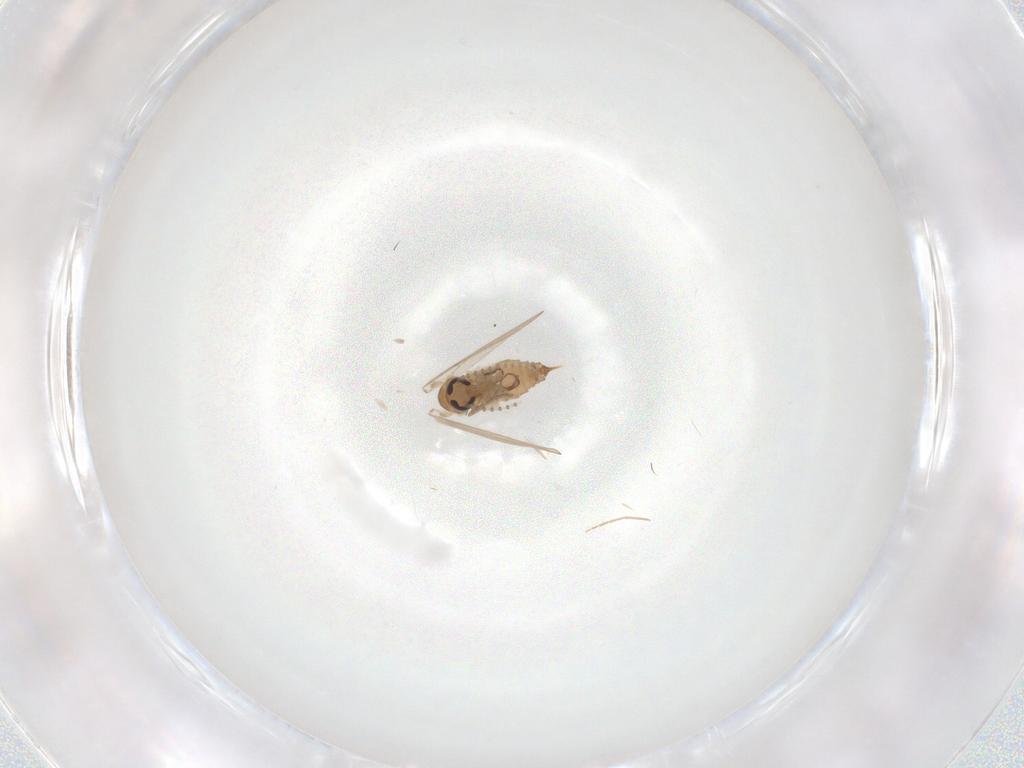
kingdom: Animalia
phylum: Arthropoda
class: Insecta
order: Diptera
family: Psychodidae
